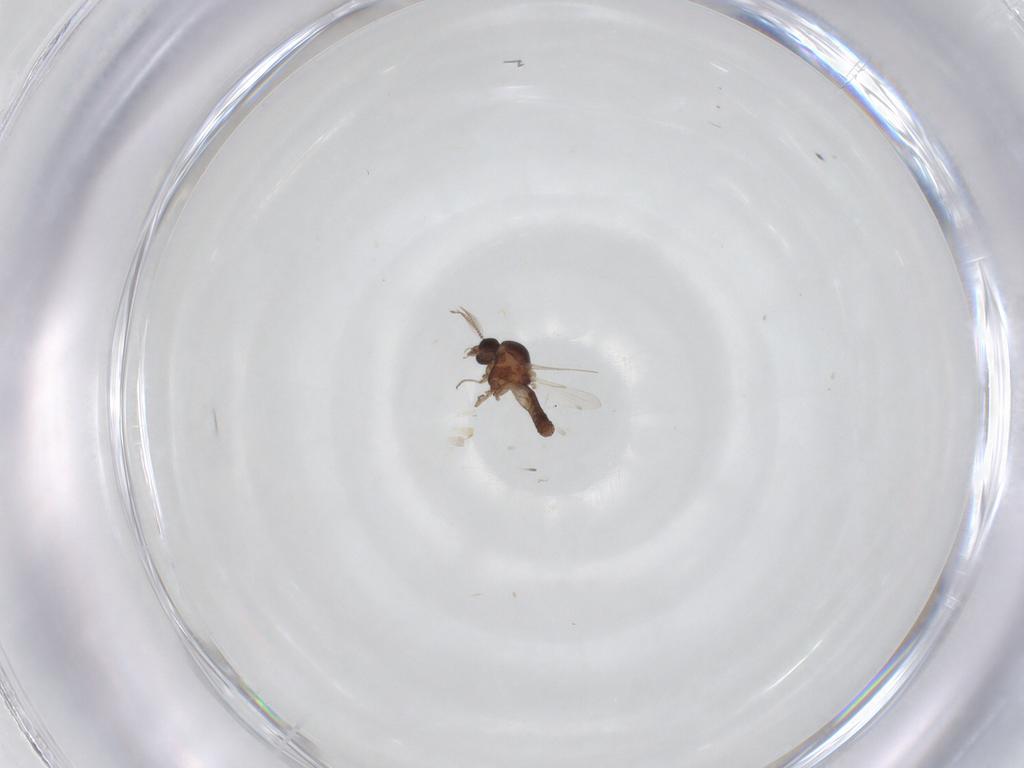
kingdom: Animalia
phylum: Arthropoda
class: Insecta
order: Diptera
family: Ceratopogonidae
